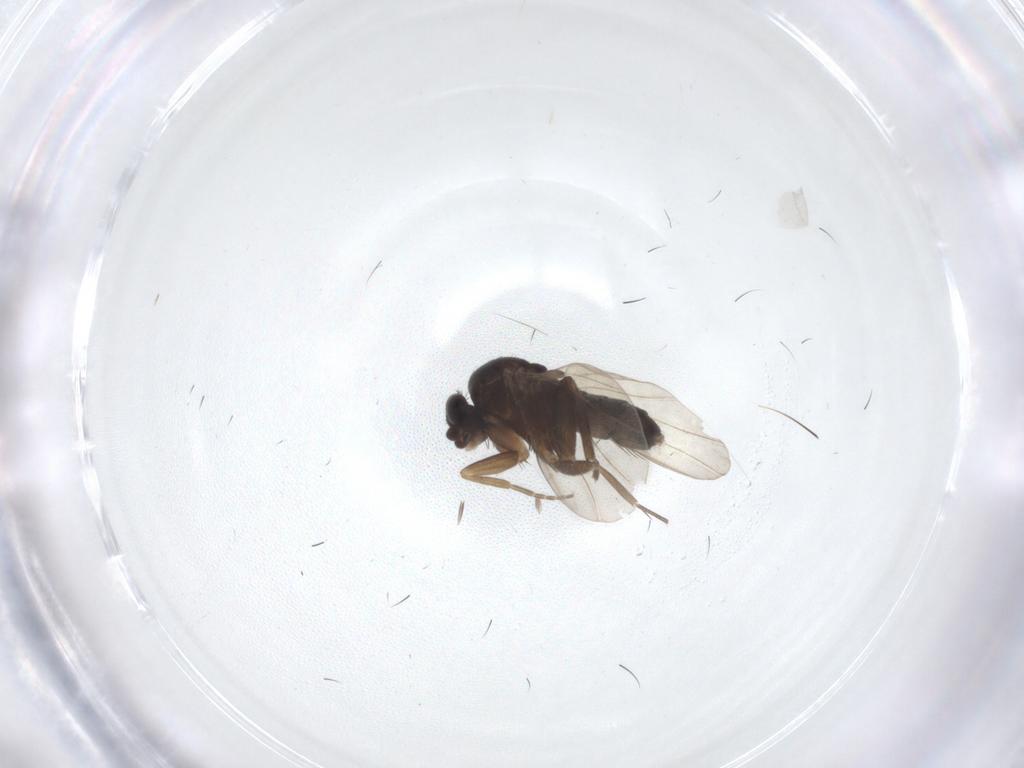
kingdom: Animalia
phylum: Arthropoda
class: Insecta
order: Diptera
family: Phoridae
